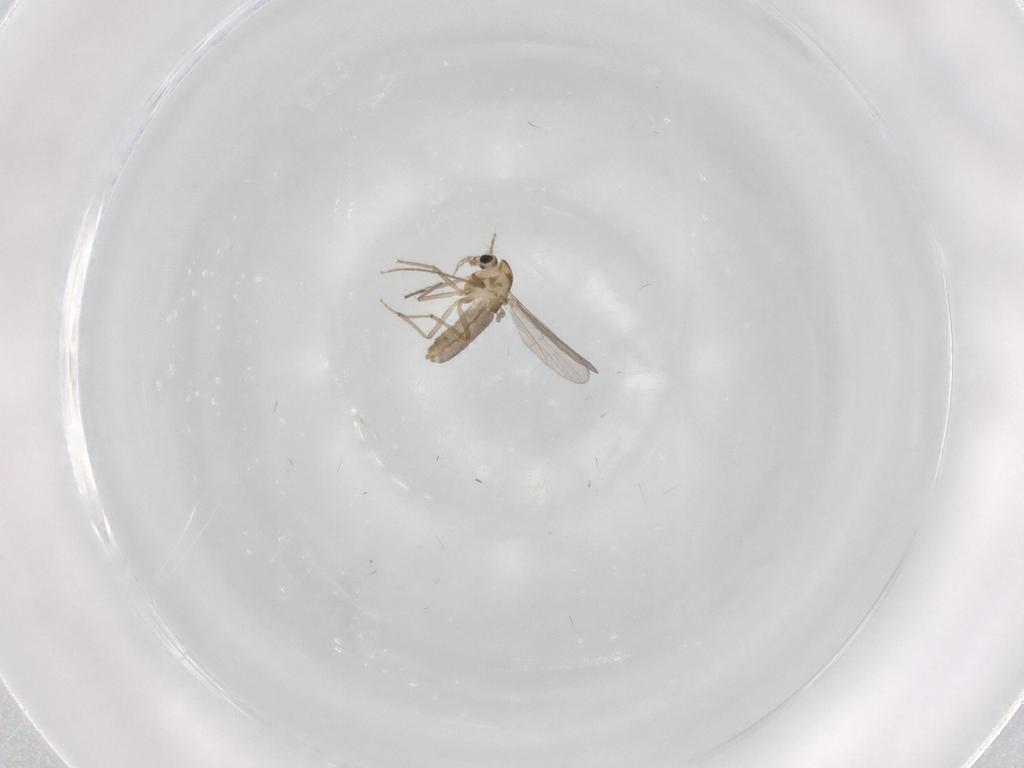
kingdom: Animalia
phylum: Arthropoda
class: Insecta
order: Diptera
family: Chironomidae
